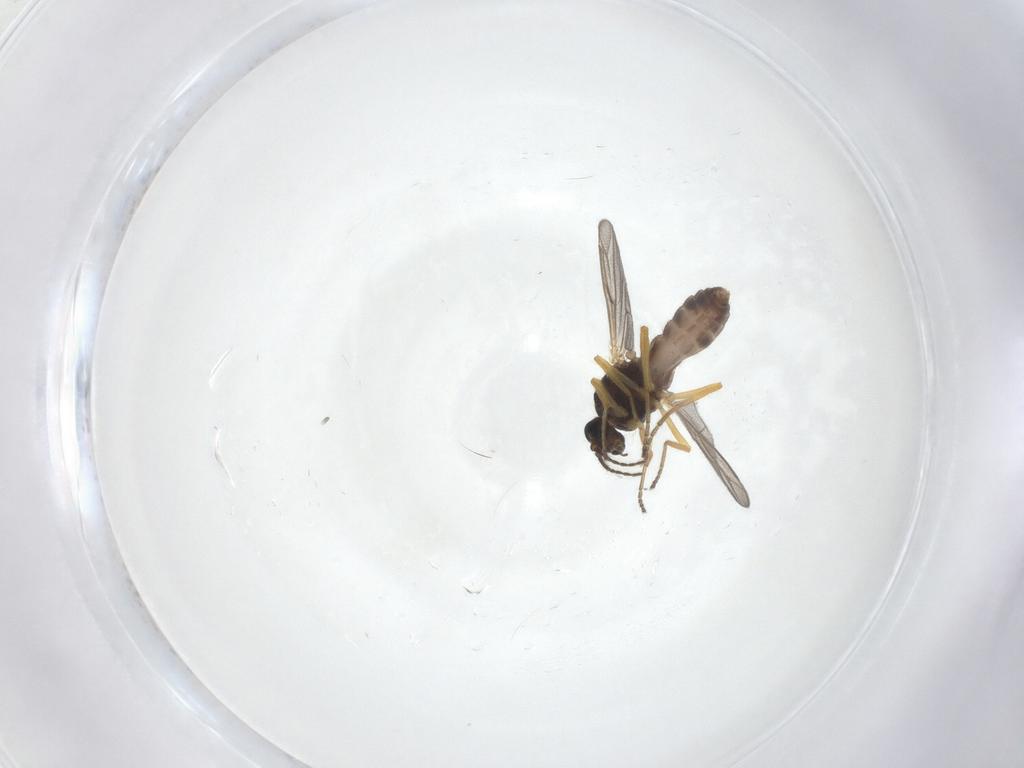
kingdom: Animalia
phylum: Arthropoda
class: Insecta
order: Diptera
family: Ceratopogonidae
